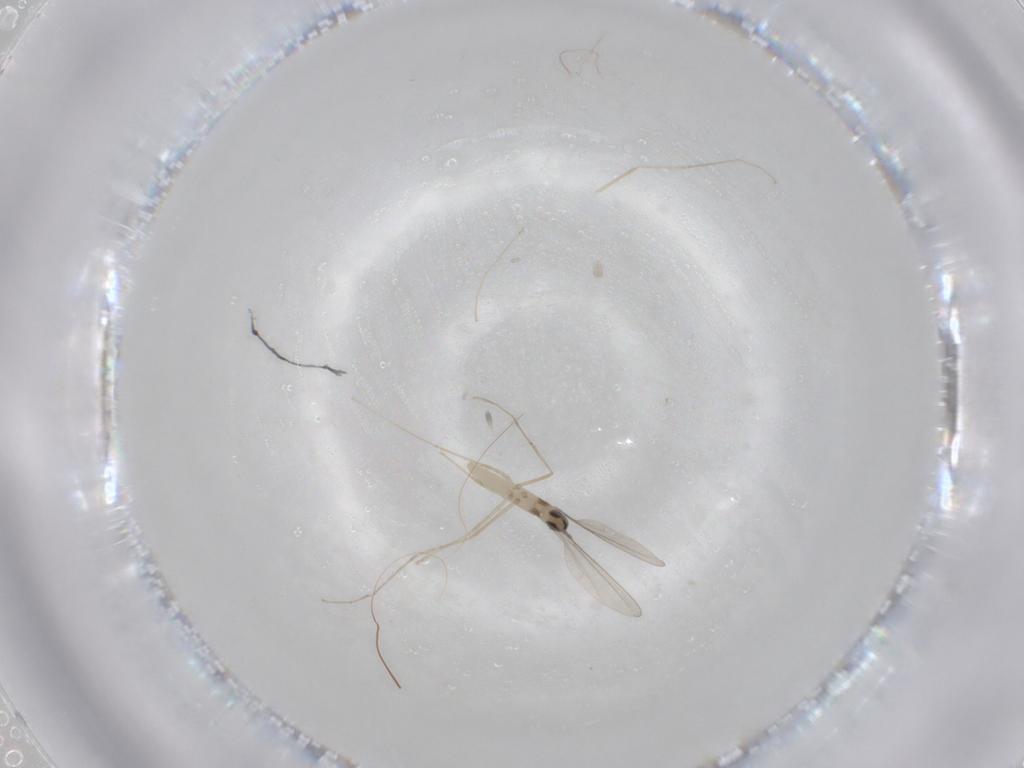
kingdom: Animalia
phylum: Arthropoda
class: Insecta
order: Diptera
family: Cecidomyiidae
